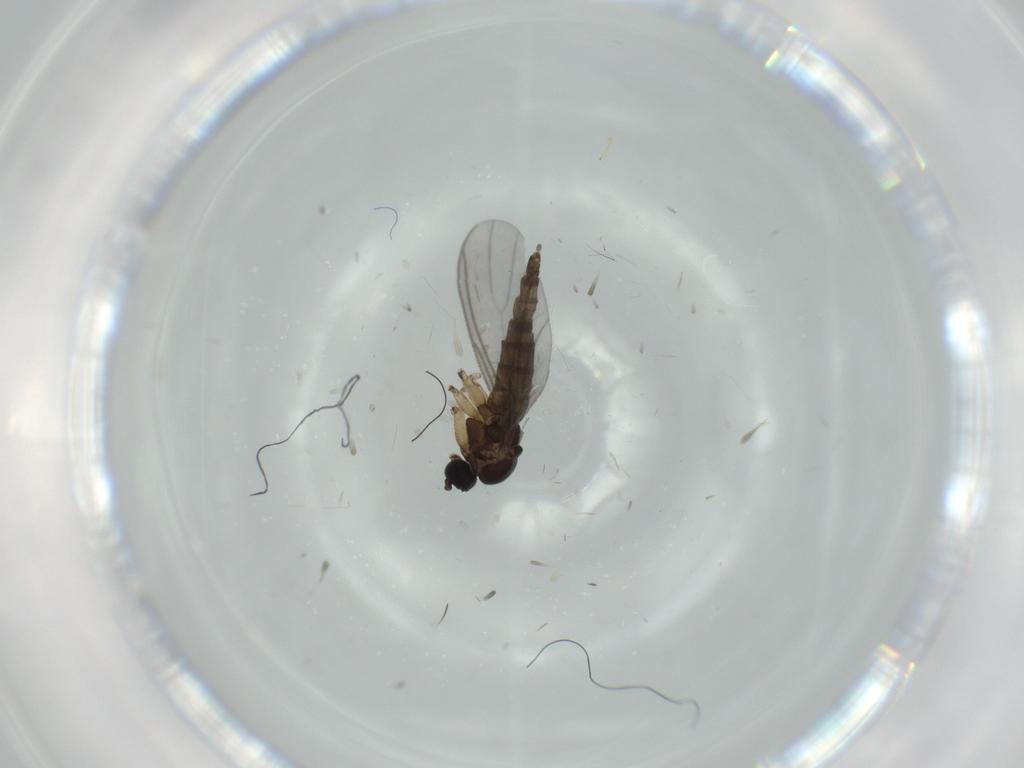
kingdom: Animalia
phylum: Arthropoda
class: Insecta
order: Diptera
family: Sciaridae
